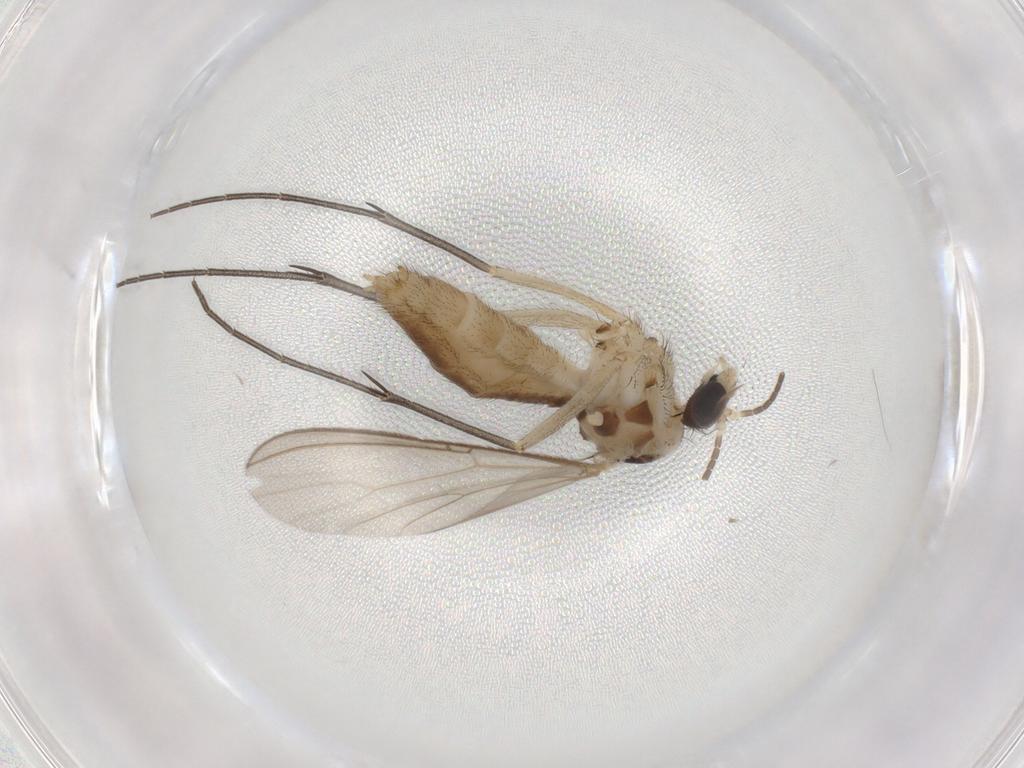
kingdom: Animalia
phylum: Arthropoda
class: Insecta
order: Diptera
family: Mycetophilidae
